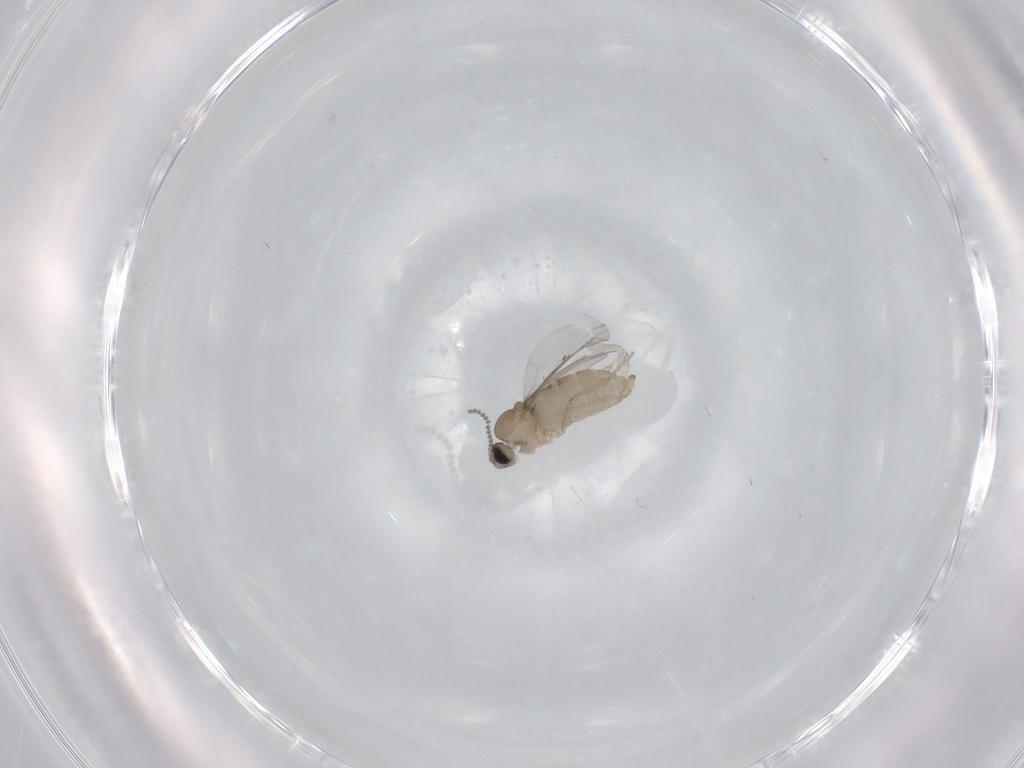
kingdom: Animalia
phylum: Arthropoda
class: Insecta
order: Diptera
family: Cecidomyiidae
